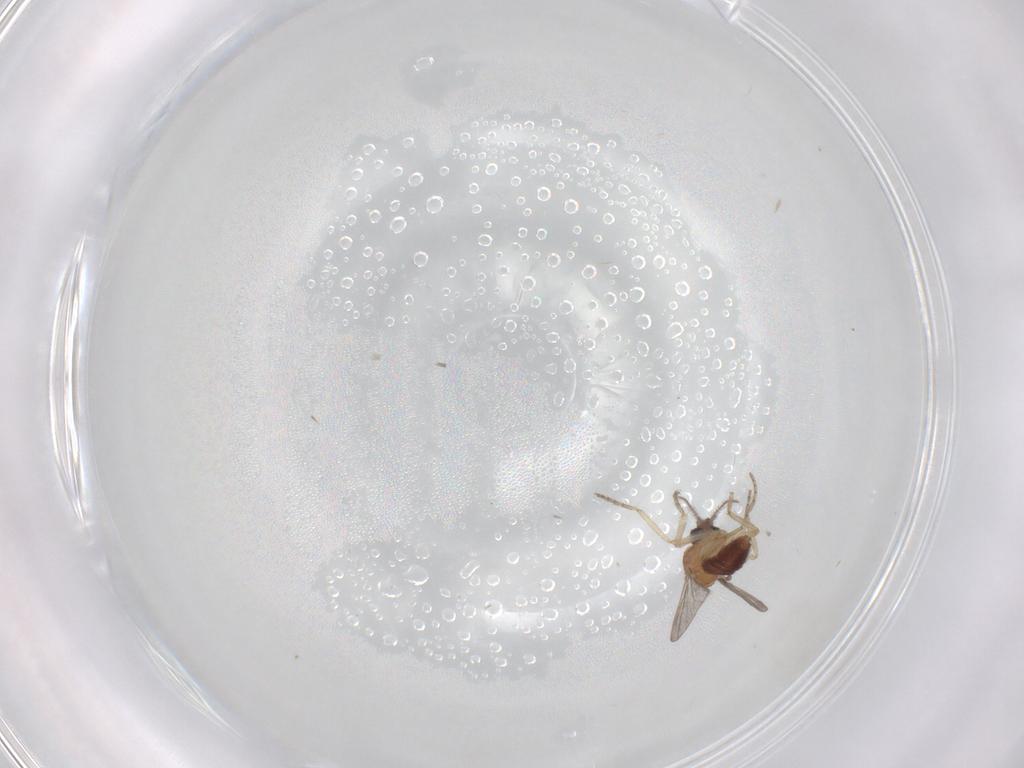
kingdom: Animalia
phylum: Arthropoda
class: Insecta
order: Diptera
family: Ceratopogonidae
